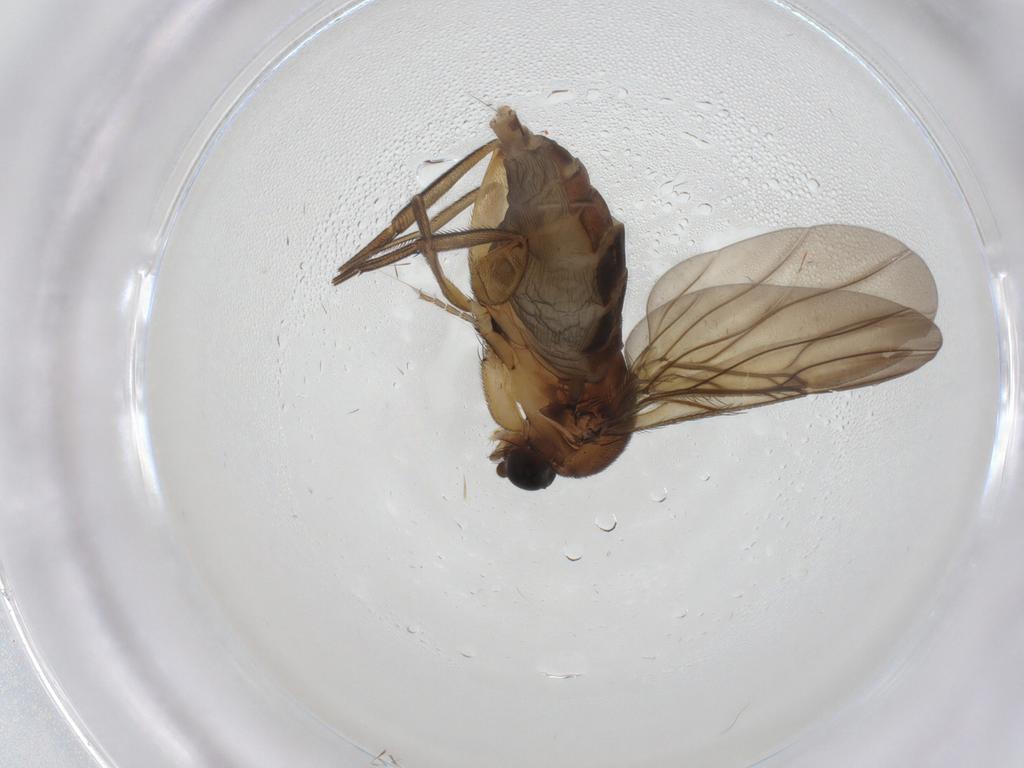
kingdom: Animalia
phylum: Arthropoda
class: Insecta
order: Diptera
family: Phoridae
